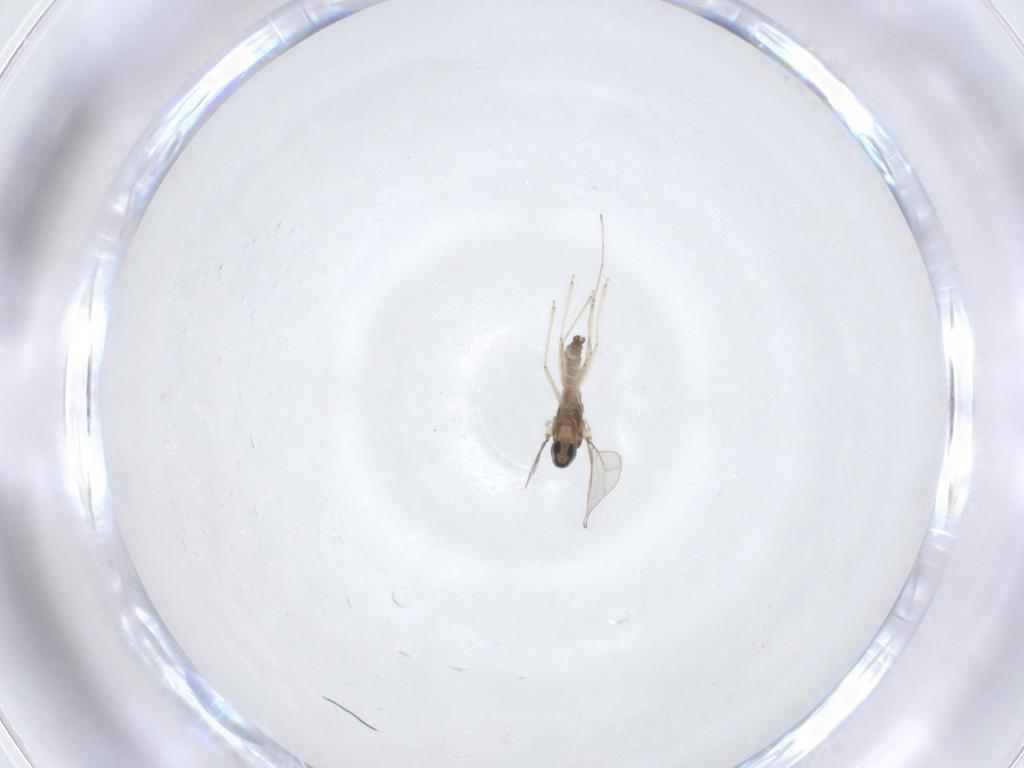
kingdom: Animalia
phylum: Arthropoda
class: Insecta
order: Diptera
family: Cecidomyiidae
